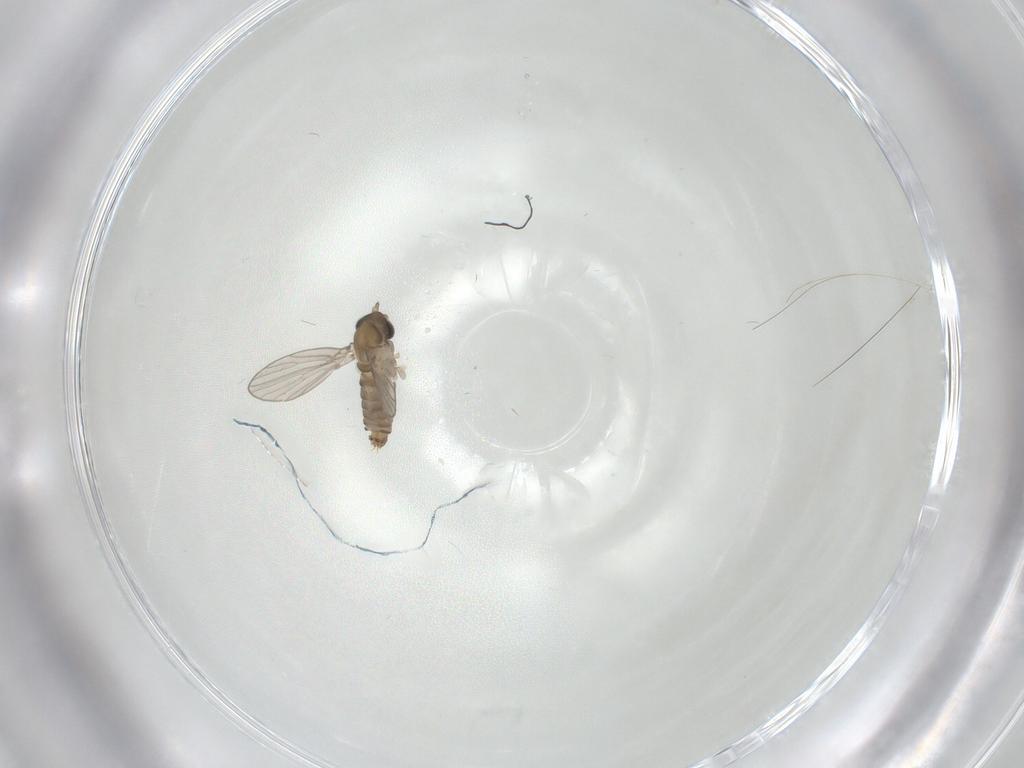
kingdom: Animalia
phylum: Arthropoda
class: Insecta
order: Diptera
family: Psychodidae
